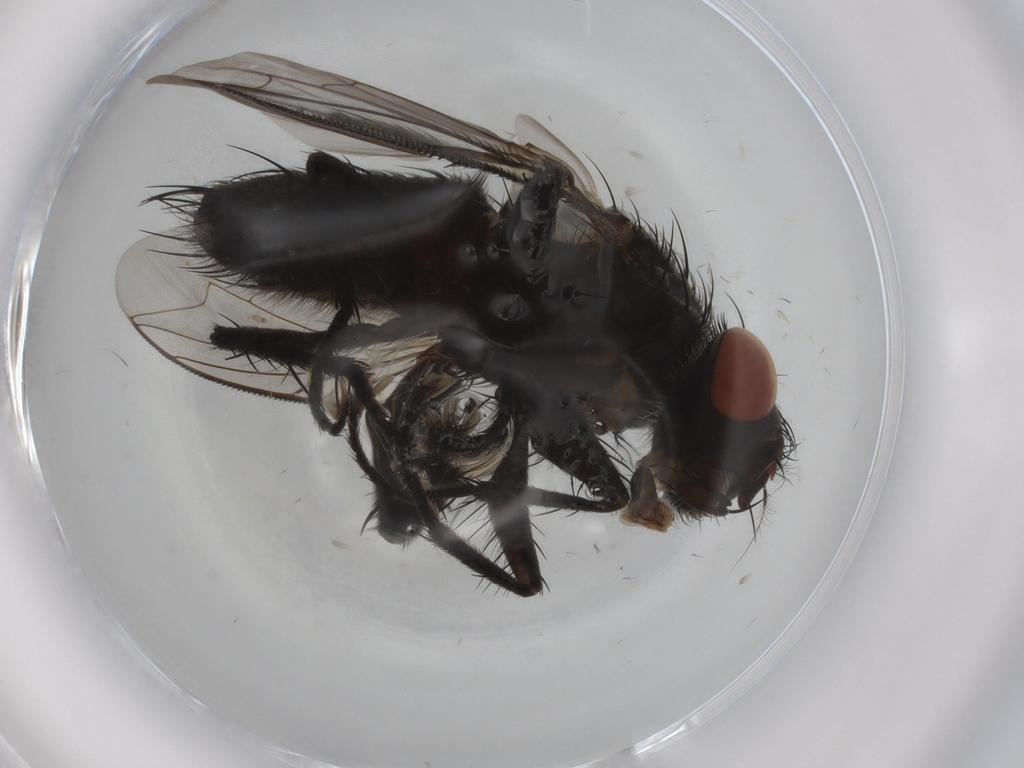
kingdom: Animalia
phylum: Arthropoda
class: Insecta
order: Diptera
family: Sarcophagidae
